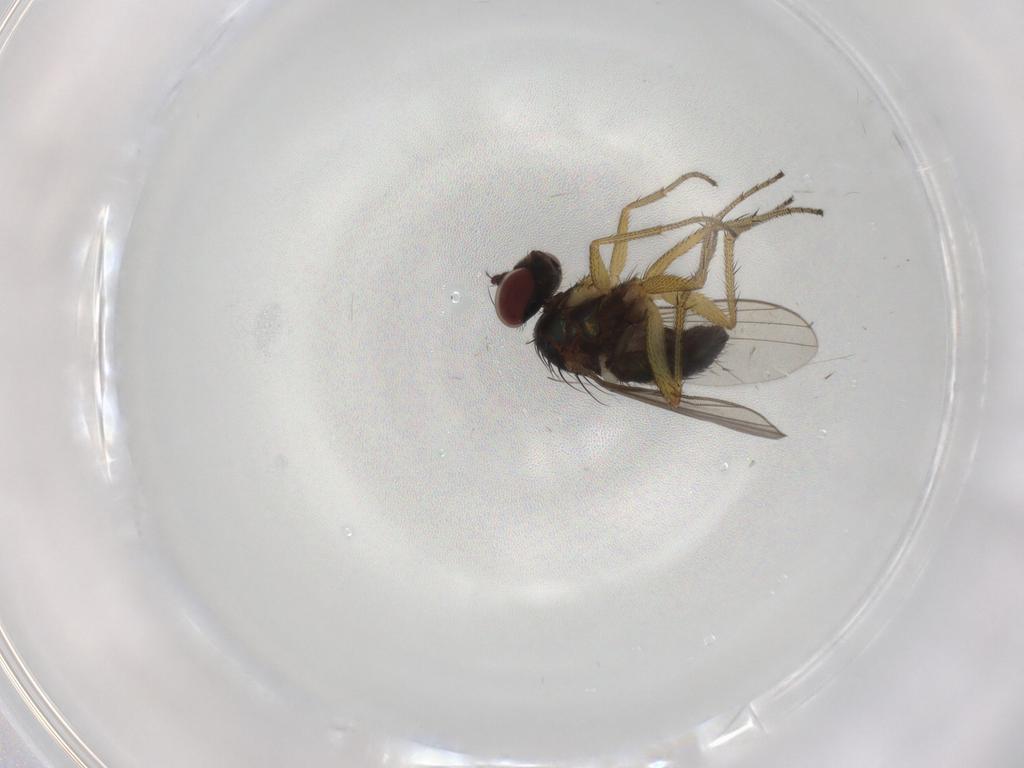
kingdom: Animalia
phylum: Arthropoda
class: Insecta
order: Diptera
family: Dolichopodidae
